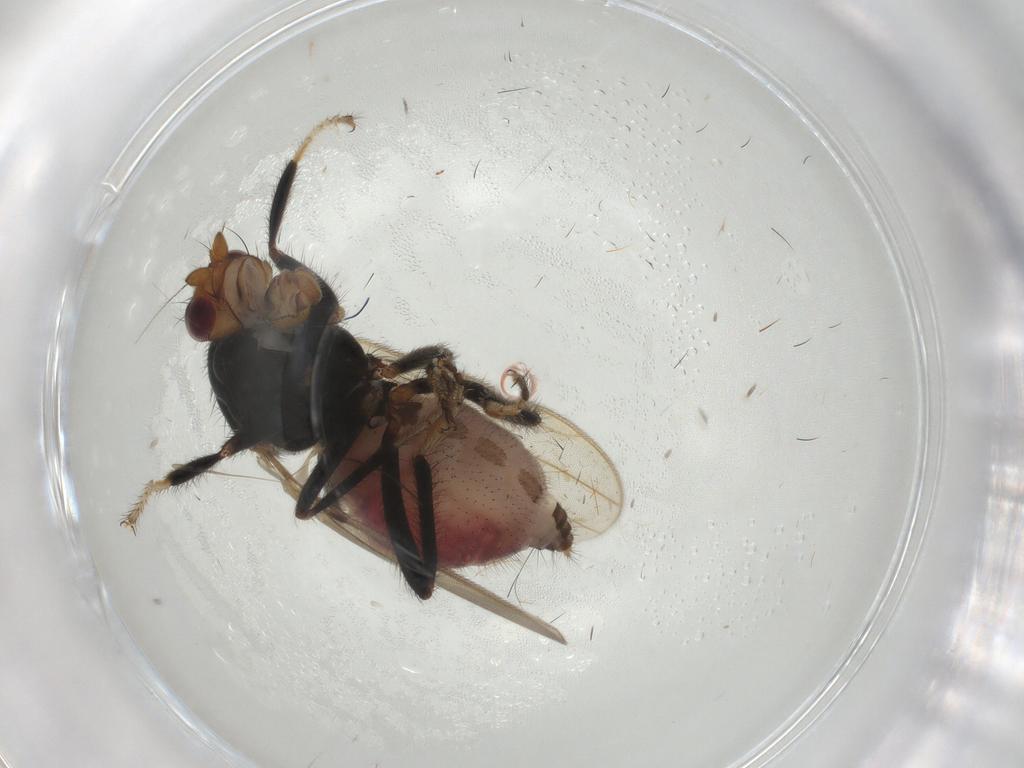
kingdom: Animalia
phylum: Arthropoda
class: Insecta
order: Diptera
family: Sphaeroceridae
